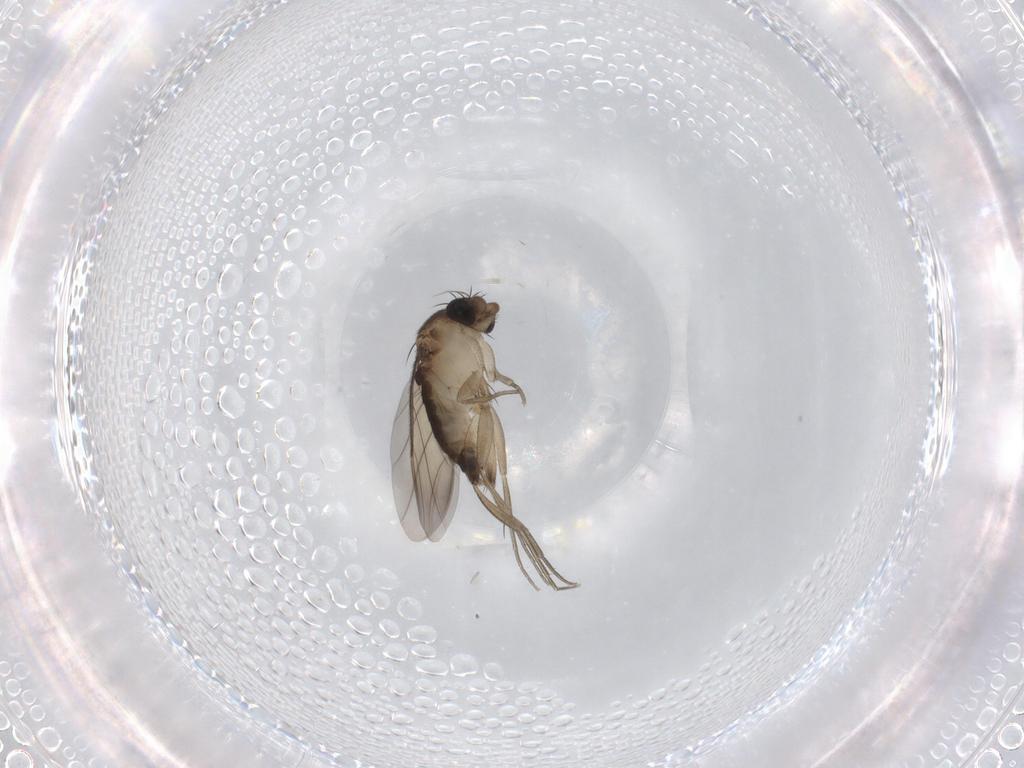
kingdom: Animalia
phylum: Arthropoda
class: Insecta
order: Diptera
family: Phoridae
